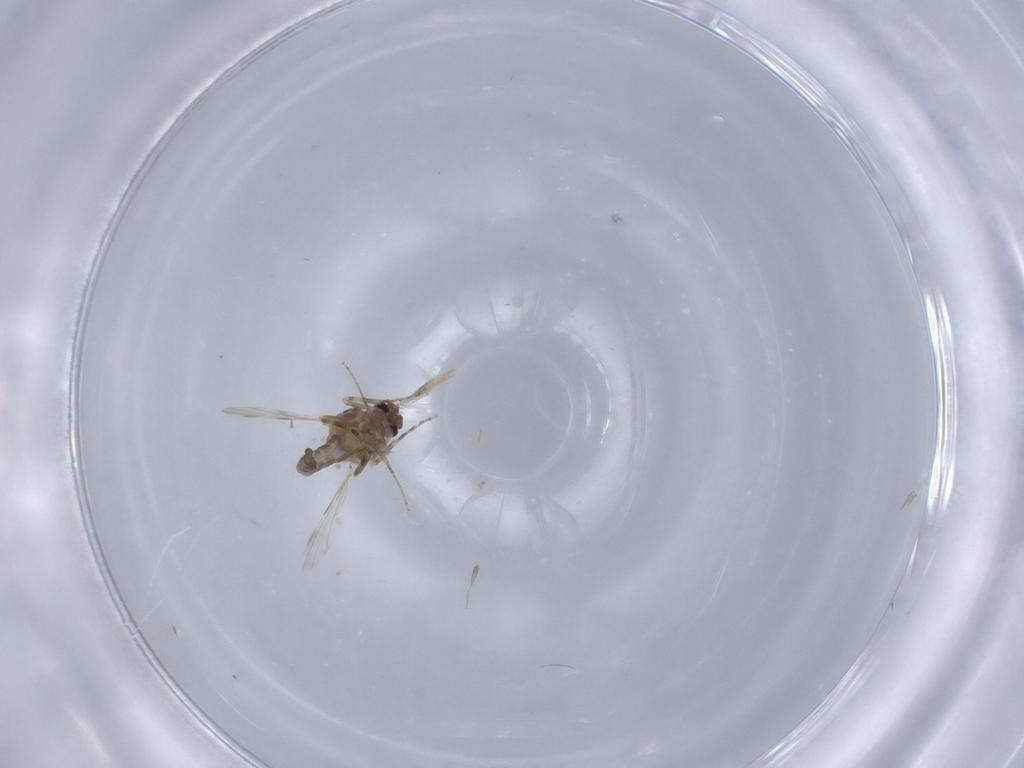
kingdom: Animalia
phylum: Arthropoda
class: Insecta
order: Diptera
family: Ceratopogonidae
